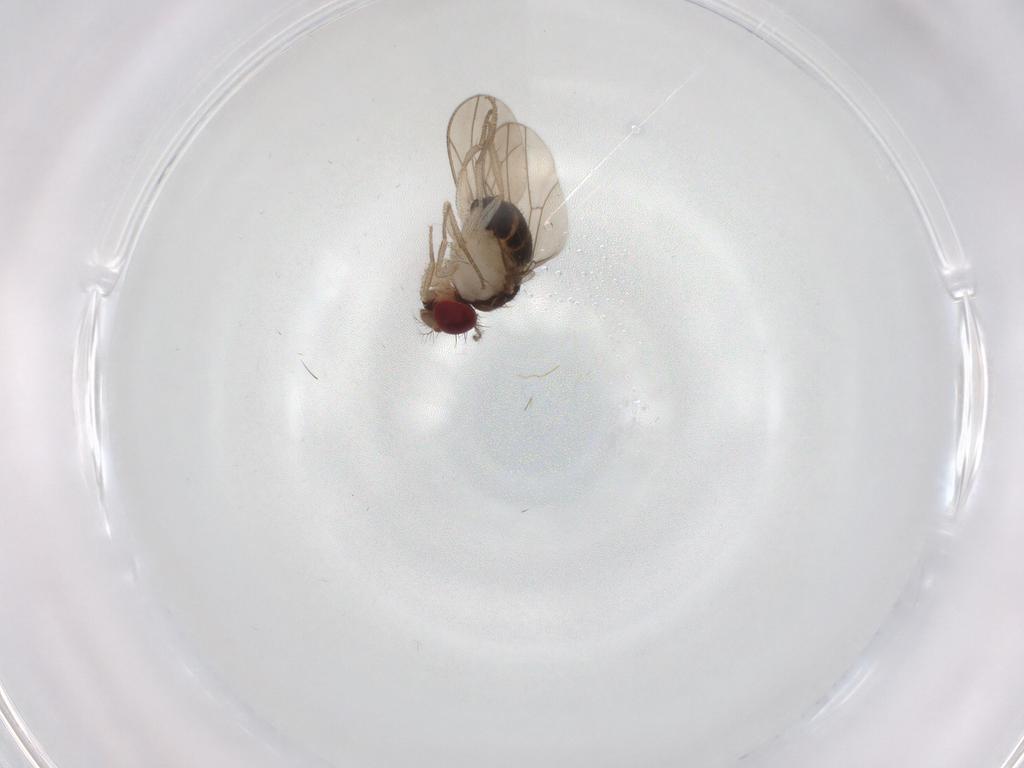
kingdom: Animalia
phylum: Arthropoda
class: Insecta
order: Diptera
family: Drosophilidae
